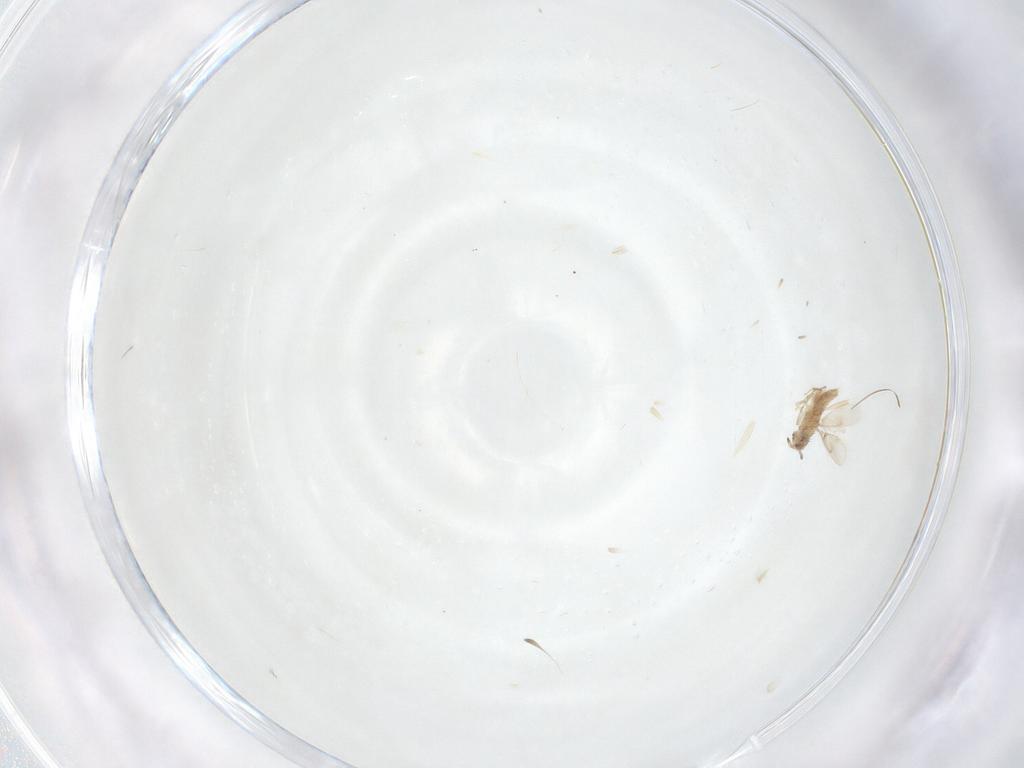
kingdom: Animalia
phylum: Arthropoda
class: Insecta
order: Hymenoptera
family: Aphelinidae
